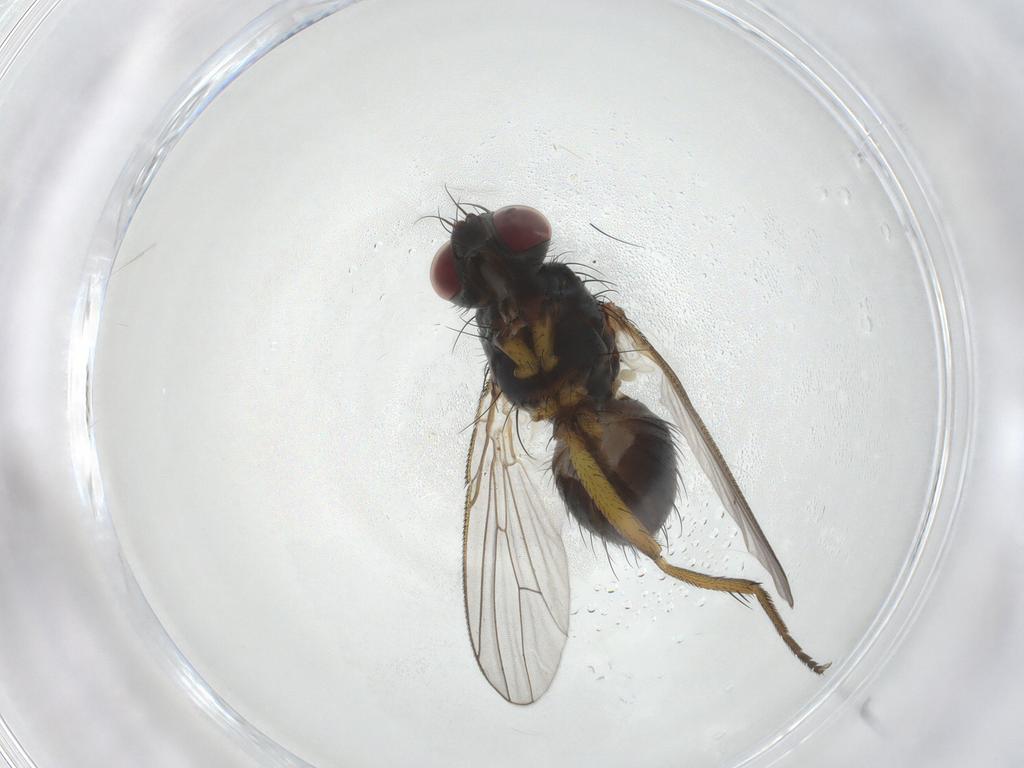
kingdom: Animalia
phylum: Arthropoda
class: Insecta
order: Diptera
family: Muscidae
